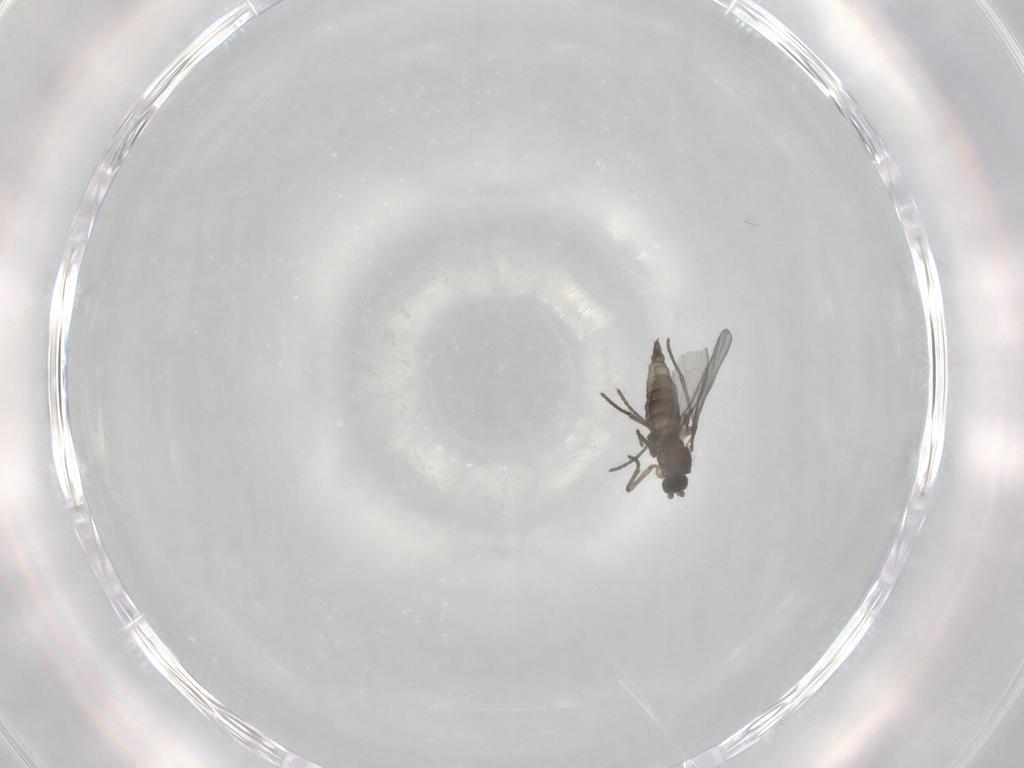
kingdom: Animalia
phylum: Arthropoda
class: Insecta
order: Diptera
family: Sciaridae
